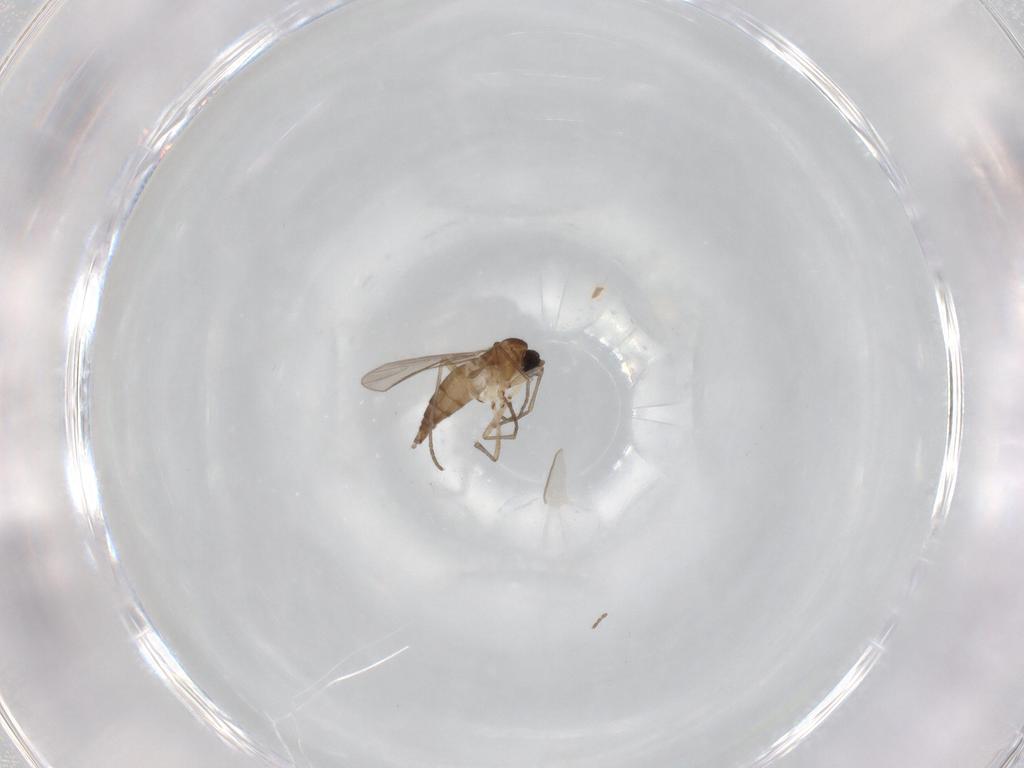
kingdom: Animalia
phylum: Arthropoda
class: Insecta
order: Diptera
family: Sciaridae
